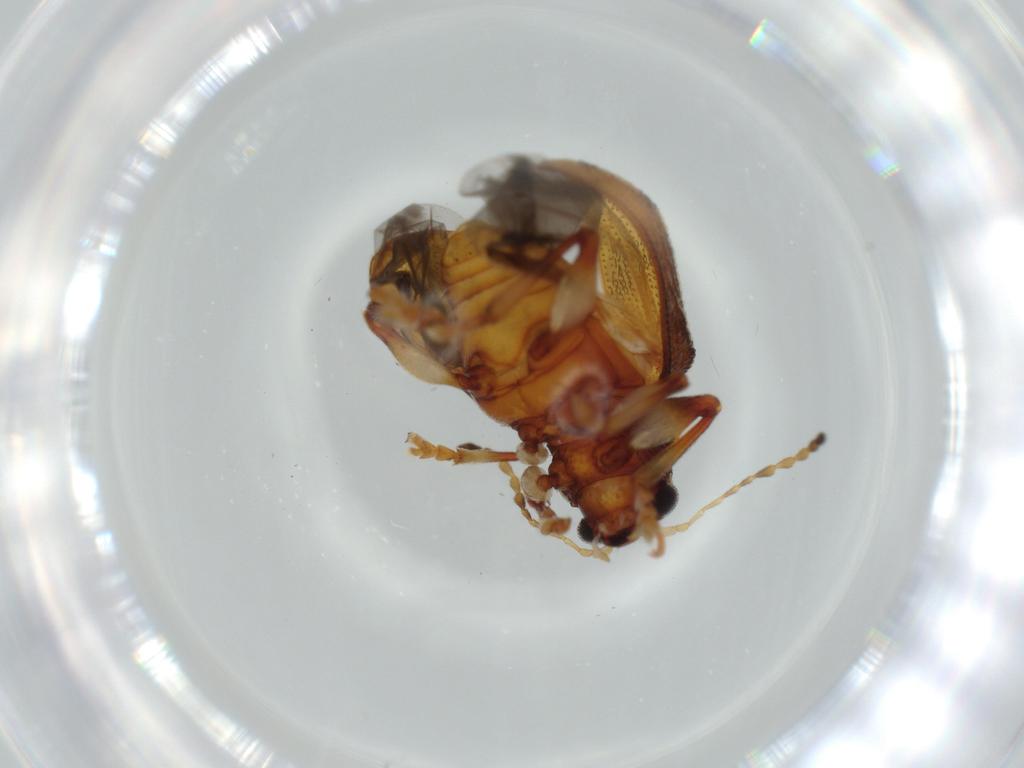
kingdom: Animalia
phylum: Arthropoda
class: Insecta
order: Coleoptera
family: Chrysomelidae
